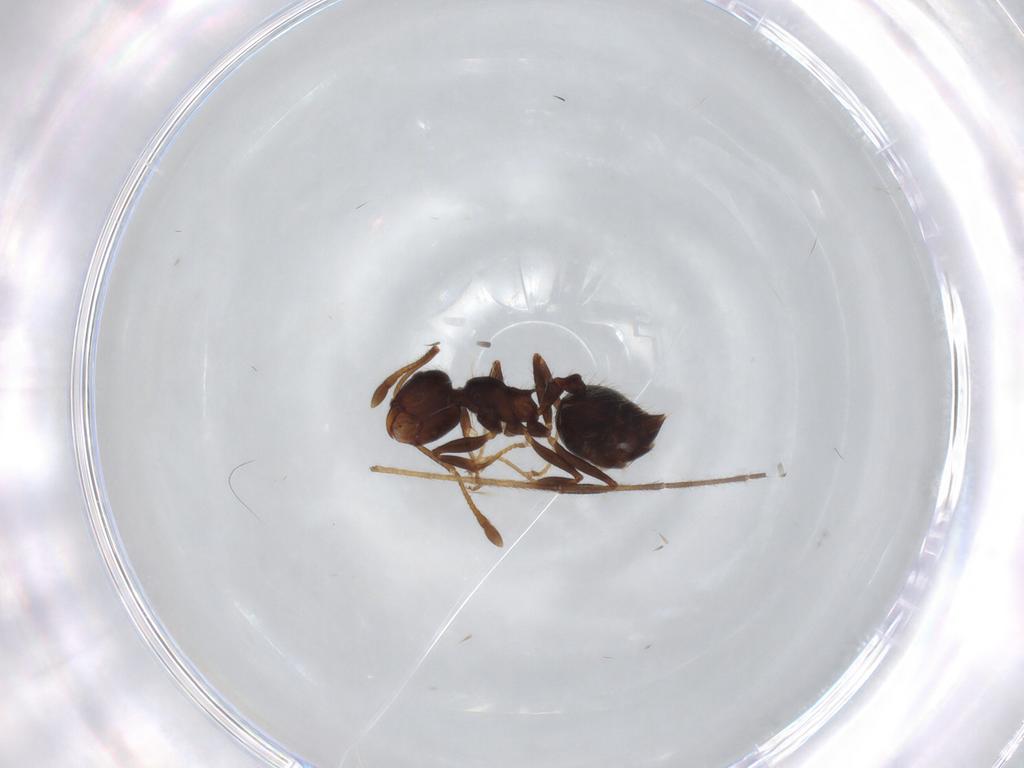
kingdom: Animalia
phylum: Arthropoda
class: Insecta
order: Hymenoptera
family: Formicidae
